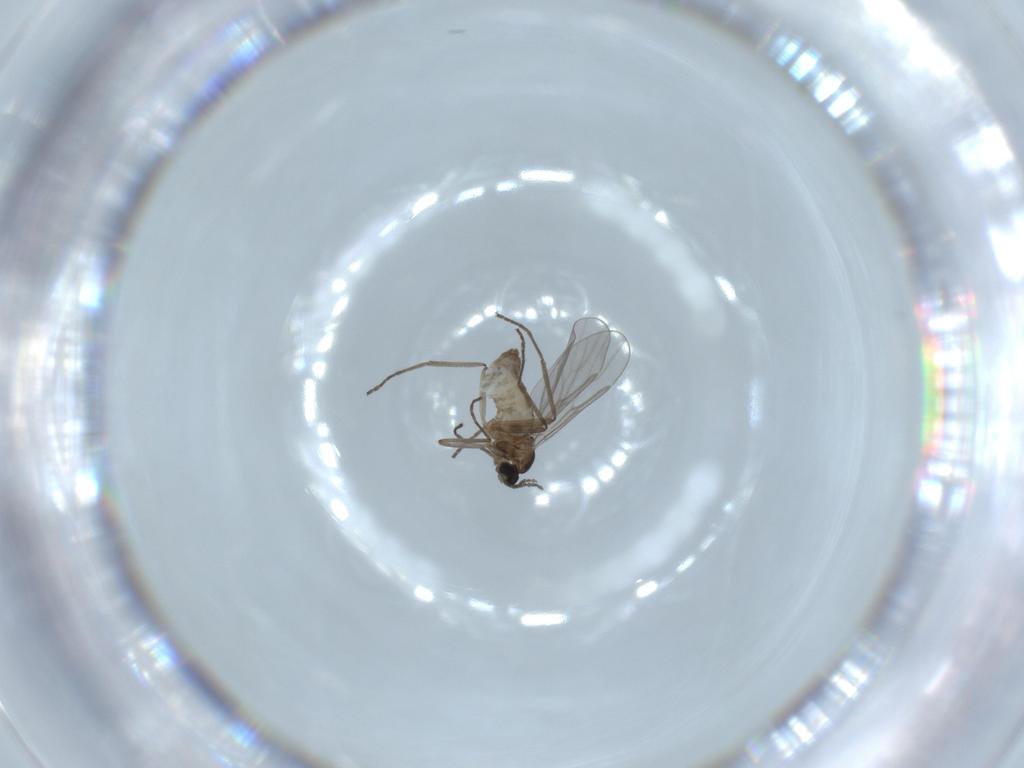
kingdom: Animalia
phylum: Arthropoda
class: Insecta
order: Diptera
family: Cecidomyiidae
